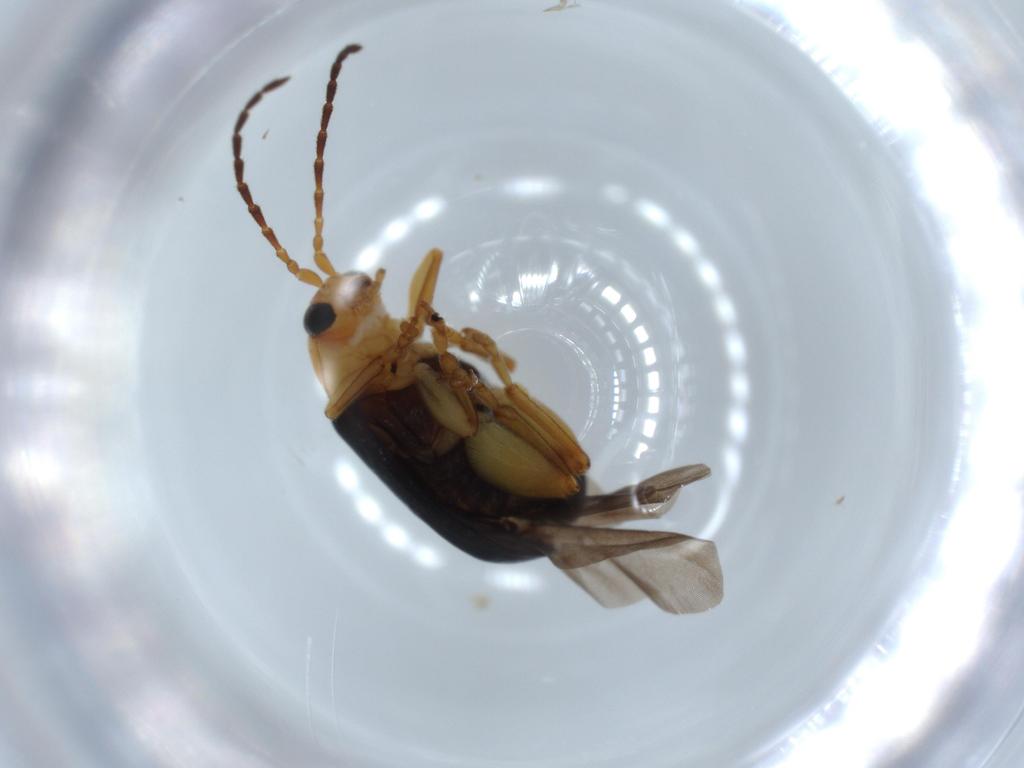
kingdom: Animalia
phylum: Arthropoda
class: Insecta
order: Coleoptera
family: Chrysomelidae
